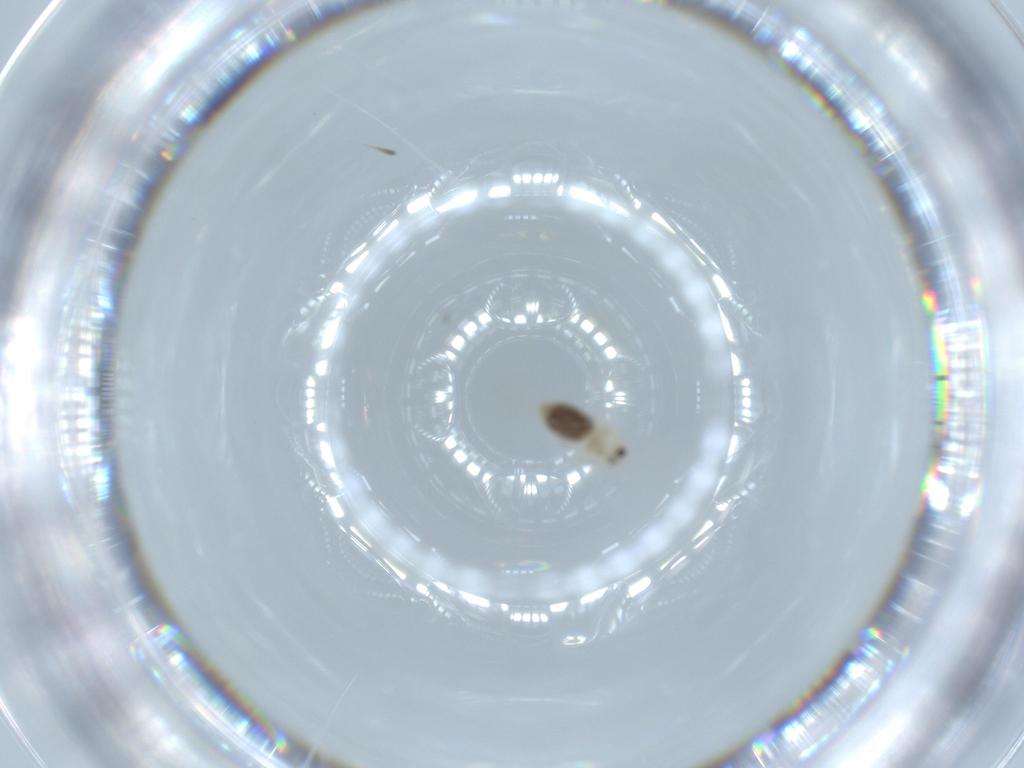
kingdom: Animalia
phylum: Arthropoda
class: Insecta
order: Diptera
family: Lauxaniidae
